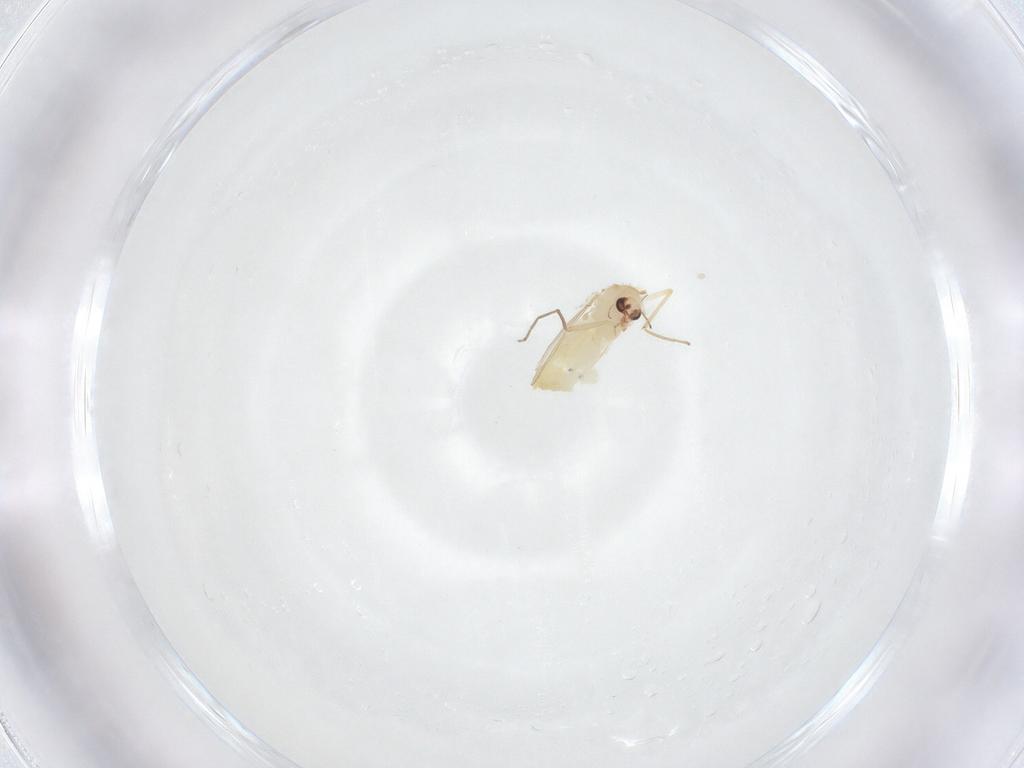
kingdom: Animalia
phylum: Arthropoda
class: Insecta
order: Diptera
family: Chironomidae
